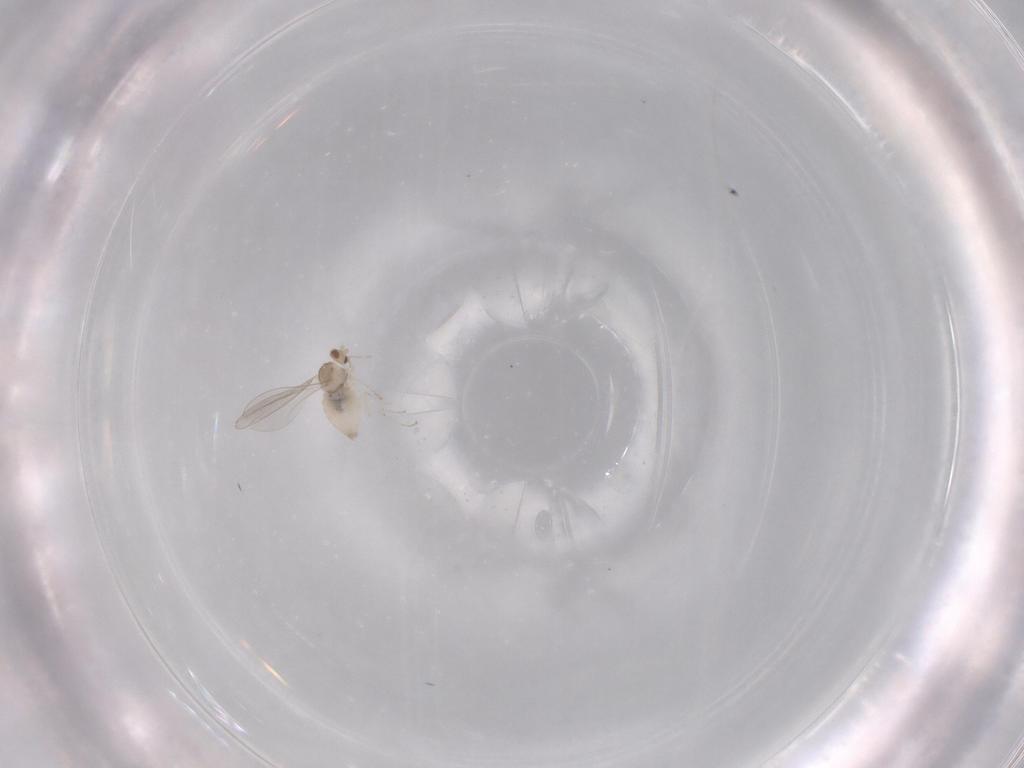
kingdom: Animalia
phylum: Arthropoda
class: Insecta
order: Diptera
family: Cecidomyiidae
